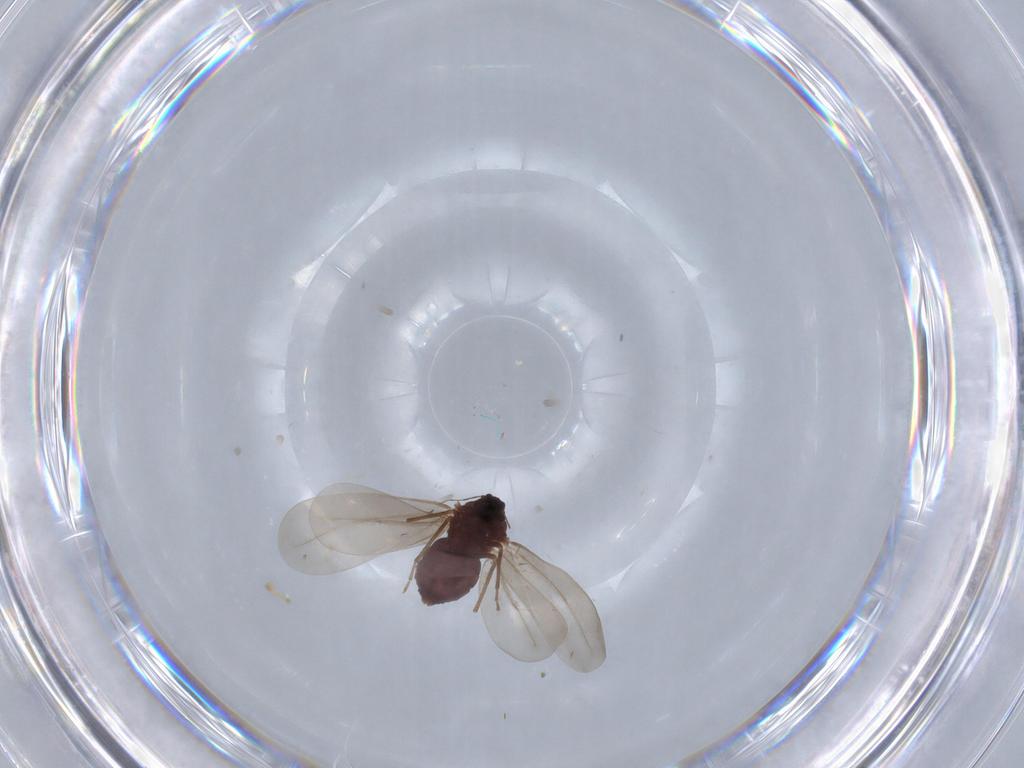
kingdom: Animalia
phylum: Arthropoda
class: Insecta
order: Hemiptera
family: Aleyrodidae
